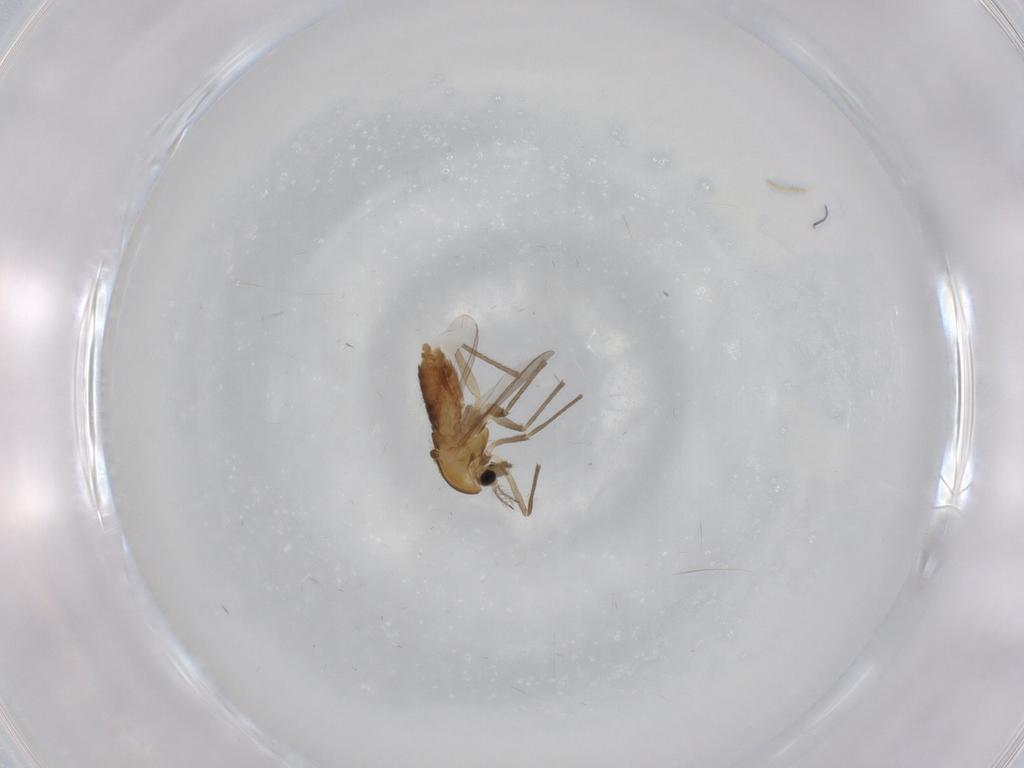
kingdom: Animalia
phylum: Arthropoda
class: Insecta
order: Diptera
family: Chironomidae
